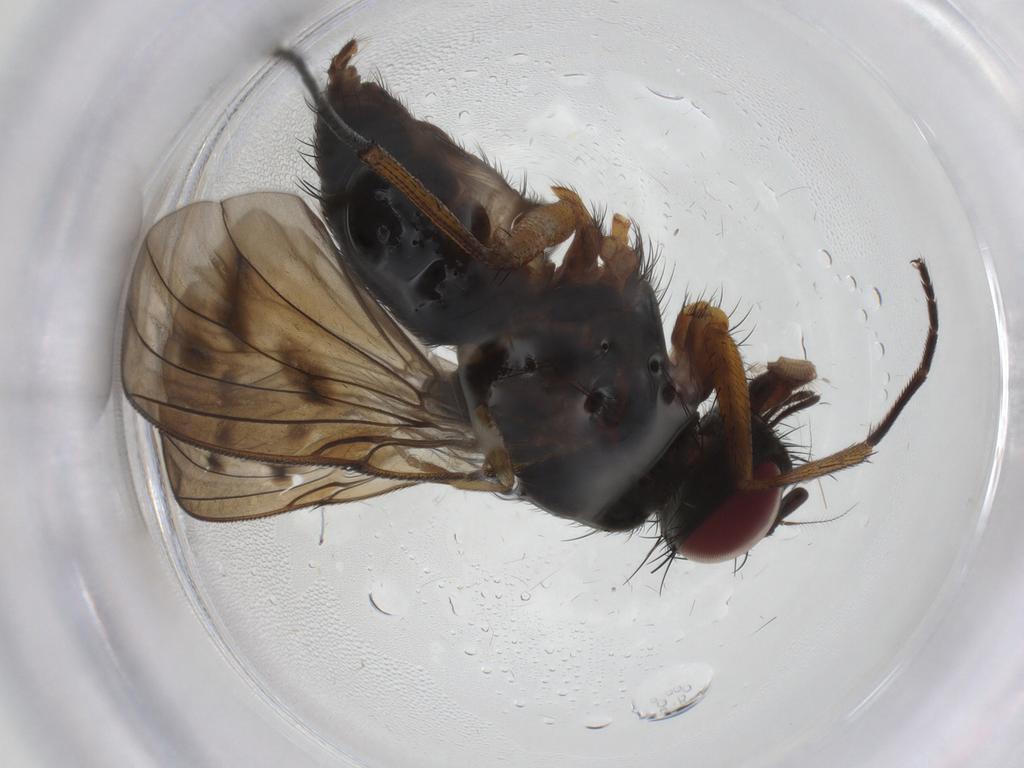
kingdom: Animalia
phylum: Arthropoda
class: Insecta
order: Diptera
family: Muscidae
